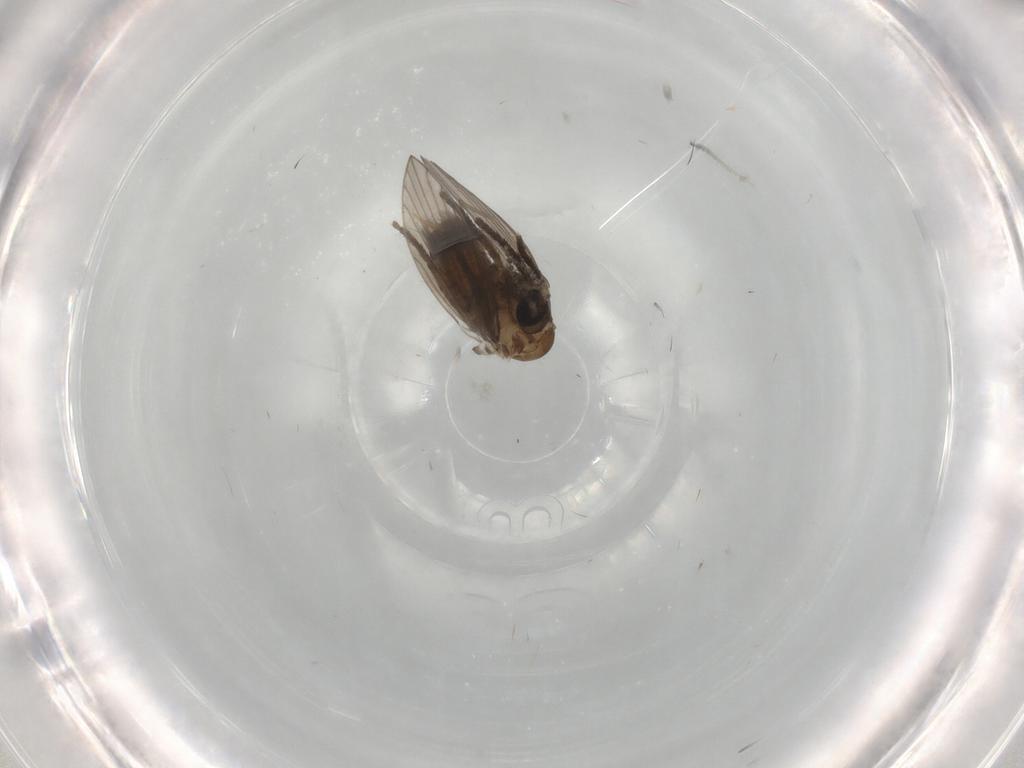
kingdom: Animalia
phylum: Arthropoda
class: Insecta
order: Diptera
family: Psychodidae
